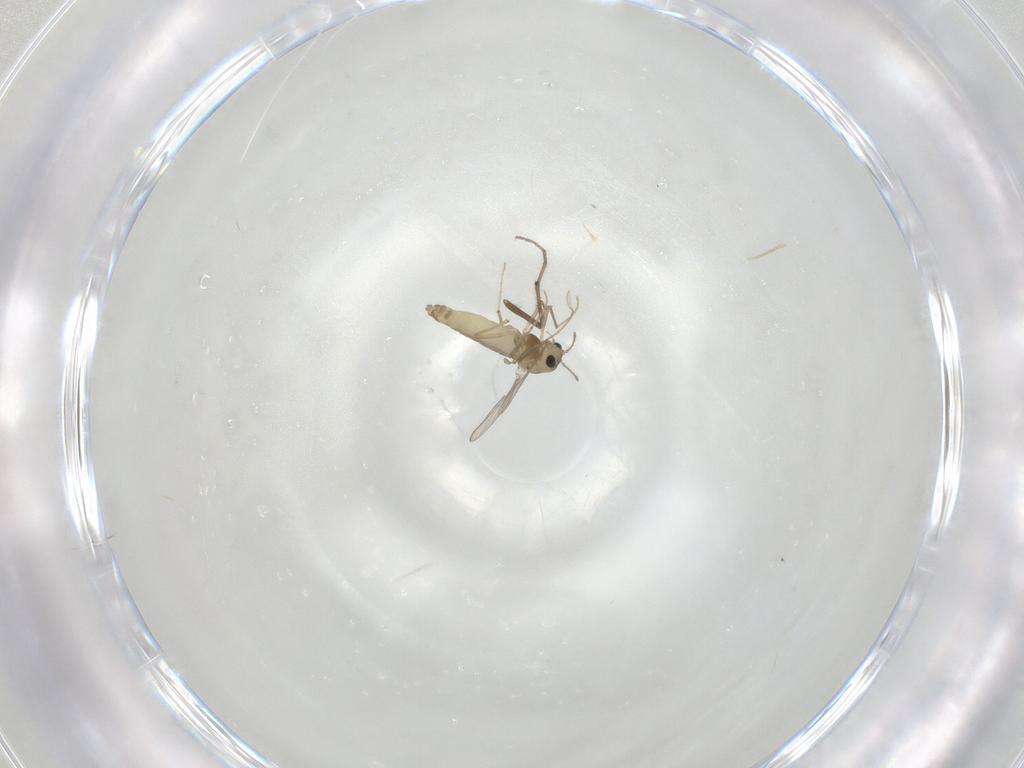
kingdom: Animalia
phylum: Arthropoda
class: Insecta
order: Diptera
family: Chironomidae
